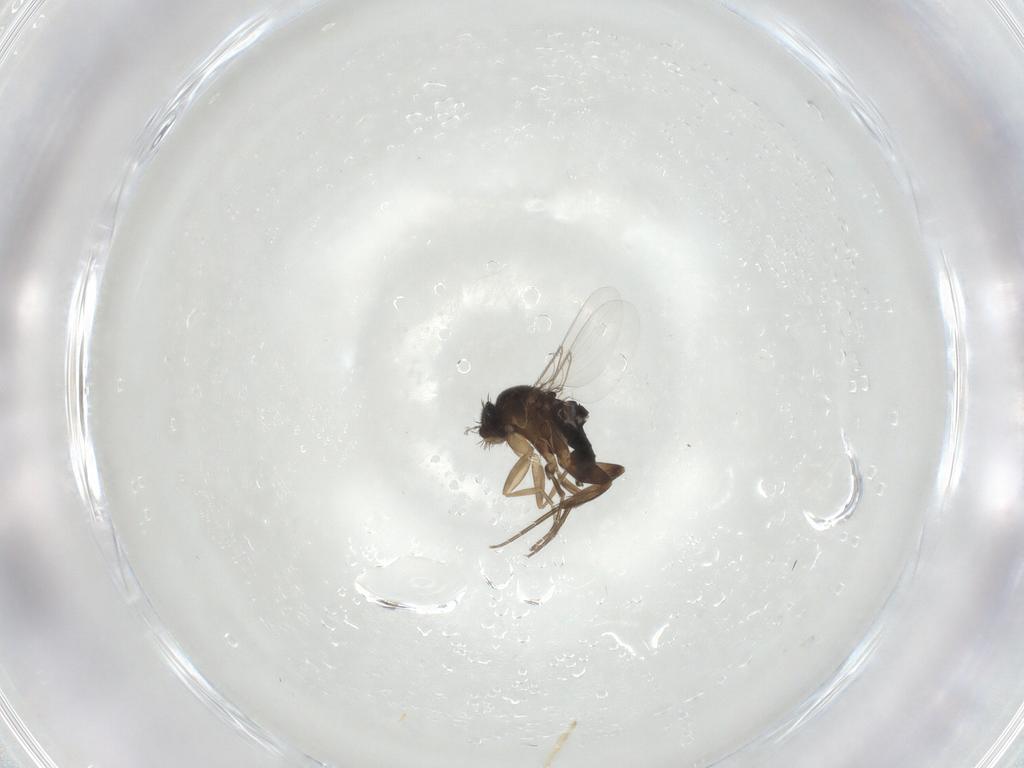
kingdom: Animalia
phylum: Arthropoda
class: Insecta
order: Diptera
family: Phoridae
